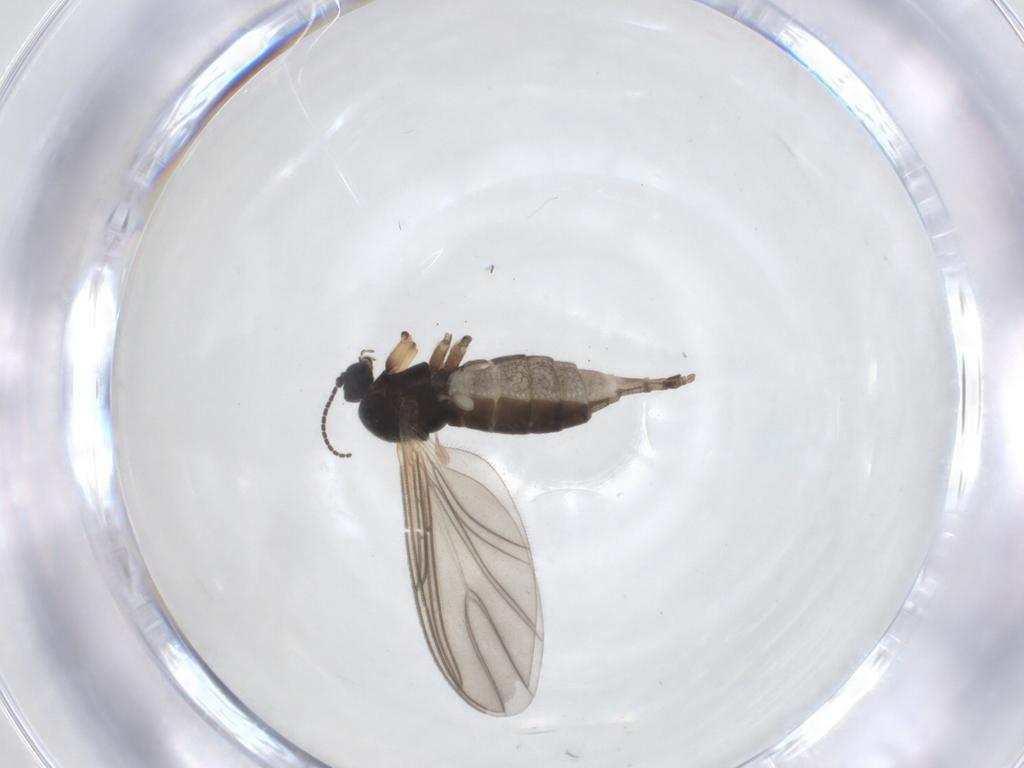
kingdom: Animalia
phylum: Arthropoda
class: Insecta
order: Diptera
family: Sciaridae
